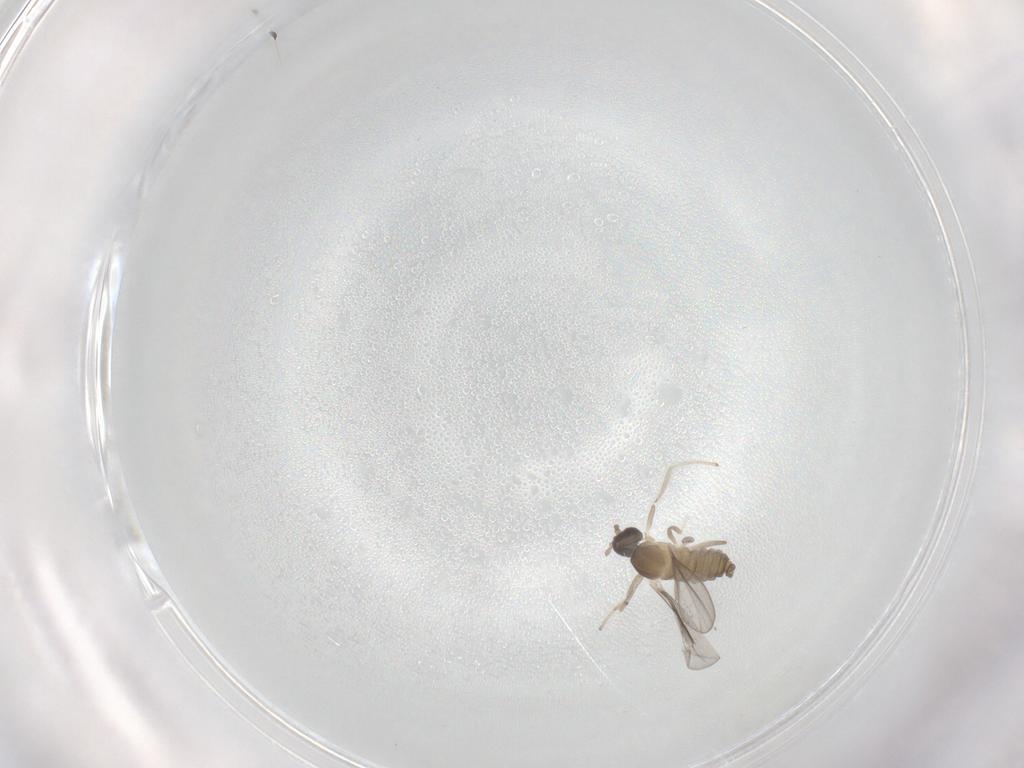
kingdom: Animalia
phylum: Arthropoda
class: Insecta
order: Diptera
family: Cecidomyiidae
